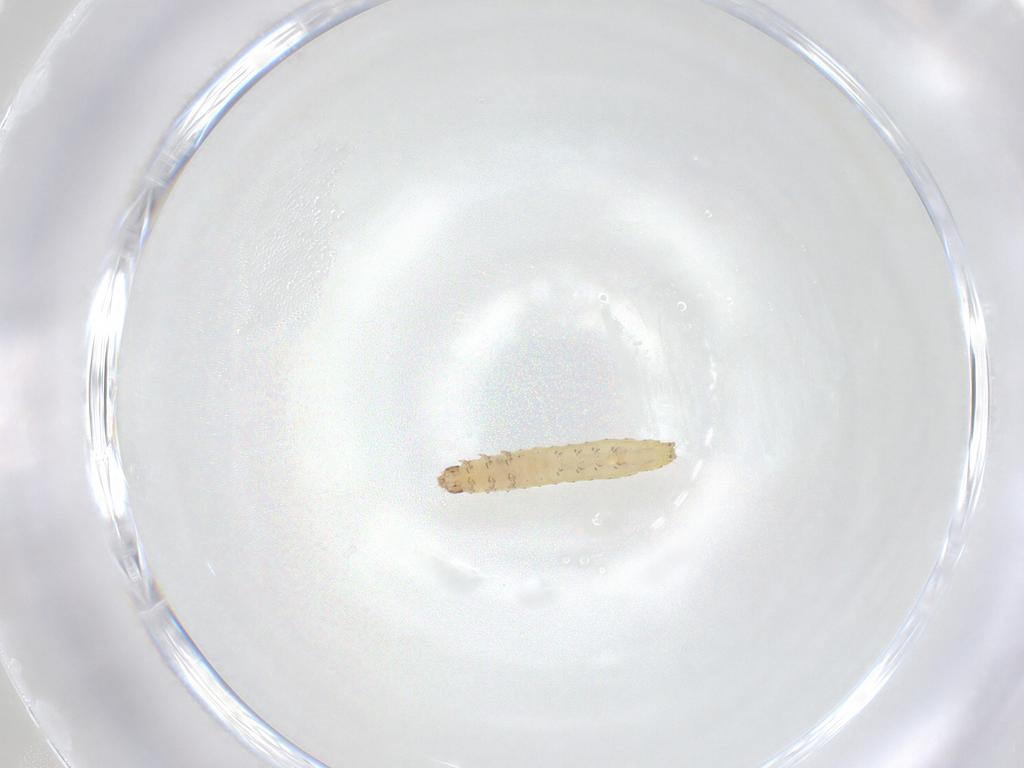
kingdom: Animalia
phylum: Arthropoda
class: Insecta
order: Lepidoptera
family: Gelechiidae
